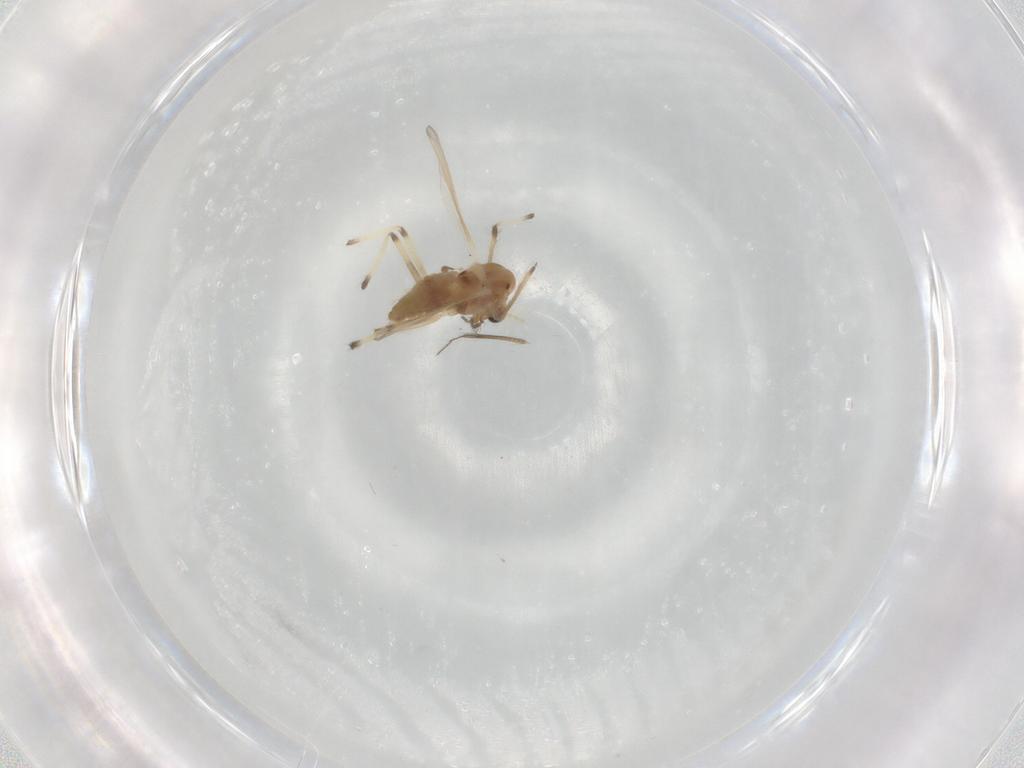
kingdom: Animalia
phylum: Arthropoda
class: Insecta
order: Diptera
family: Chironomidae
